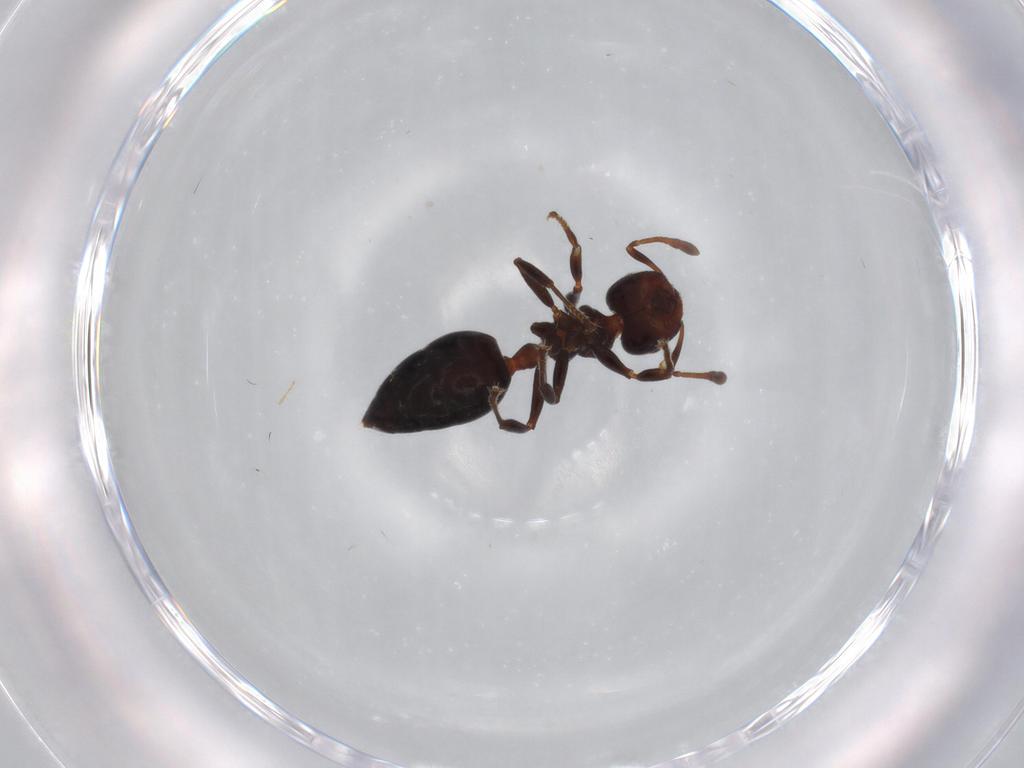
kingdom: Animalia
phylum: Arthropoda
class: Insecta
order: Hymenoptera
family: Formicidae
